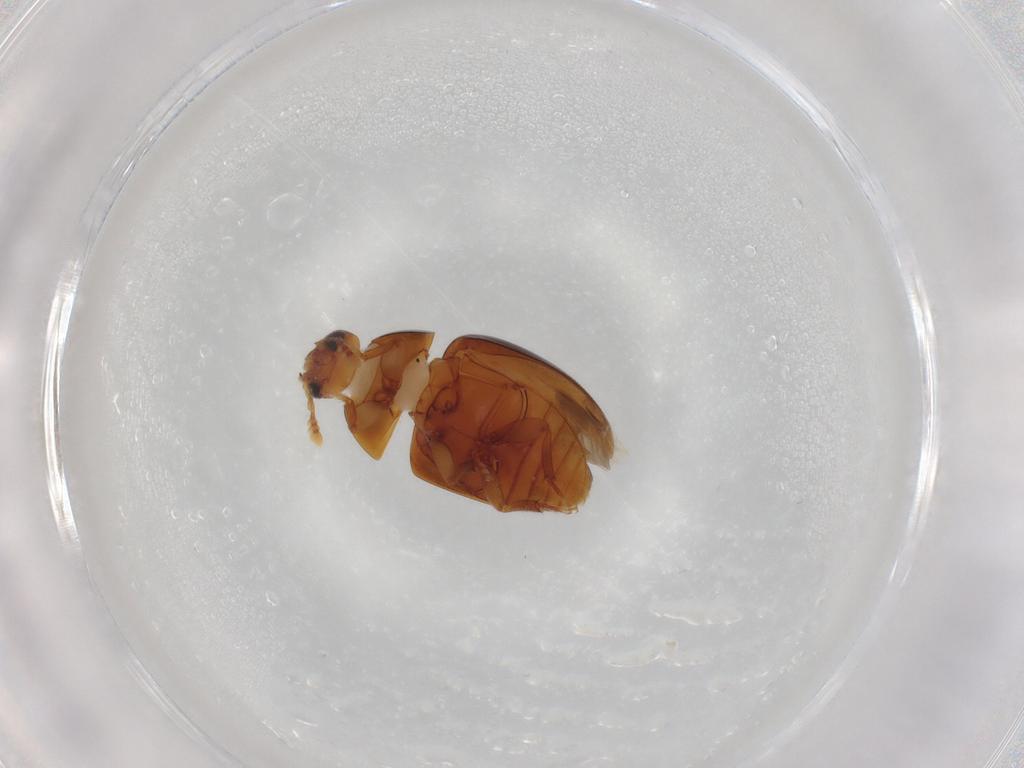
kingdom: Animalia
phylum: Arthropoda
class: Insecta
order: Coleoptera
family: Phalacridae
